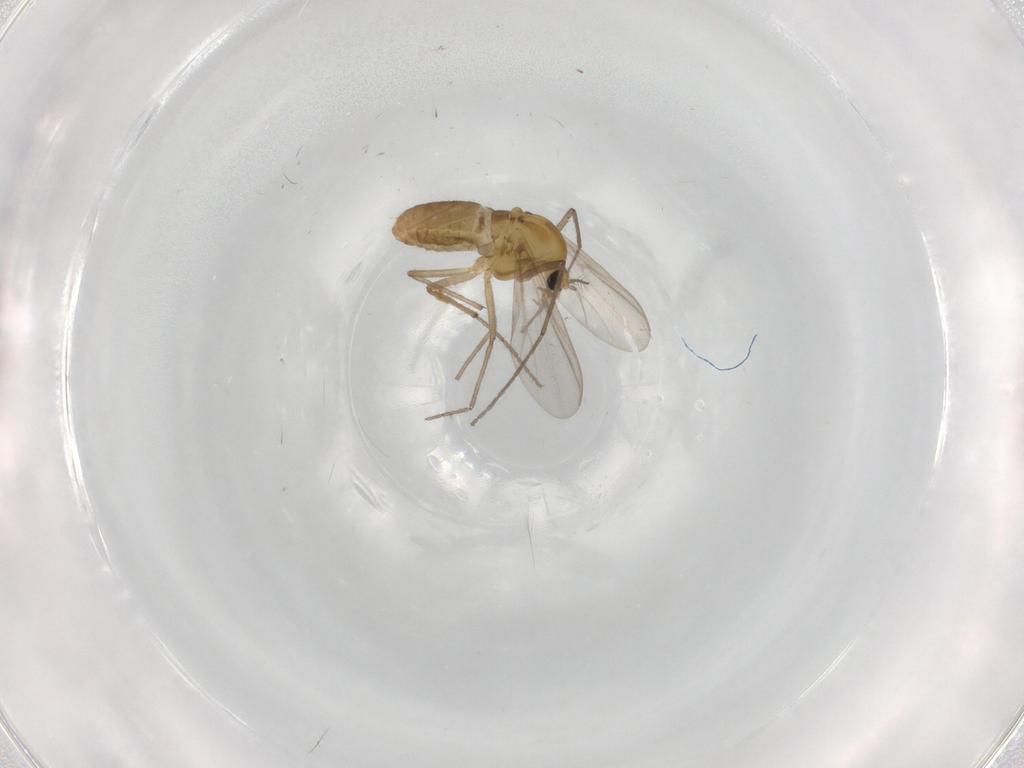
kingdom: Animalia
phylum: Arthropoda
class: Insecta
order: Diptera
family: Chironomidae
